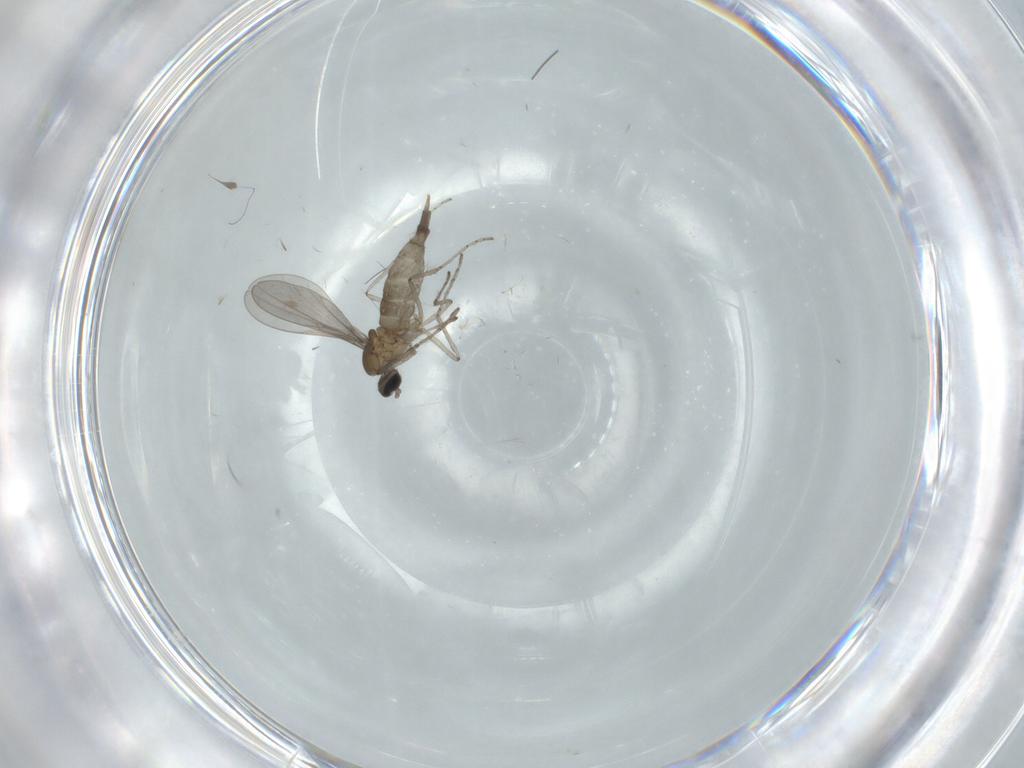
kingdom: Animalia
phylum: Arthropoda
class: Insecta
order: Diptera
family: Cecidomyiidae
